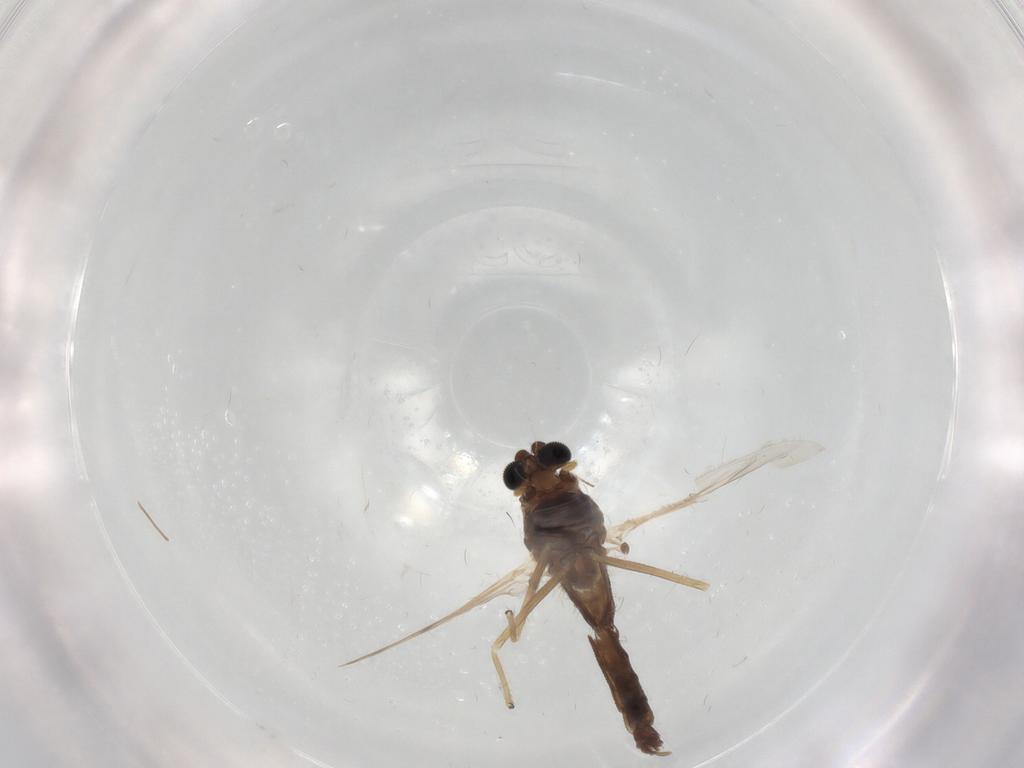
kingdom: Animalia
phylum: Arthropoda
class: Insecta
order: Diptera
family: Chironomidae
